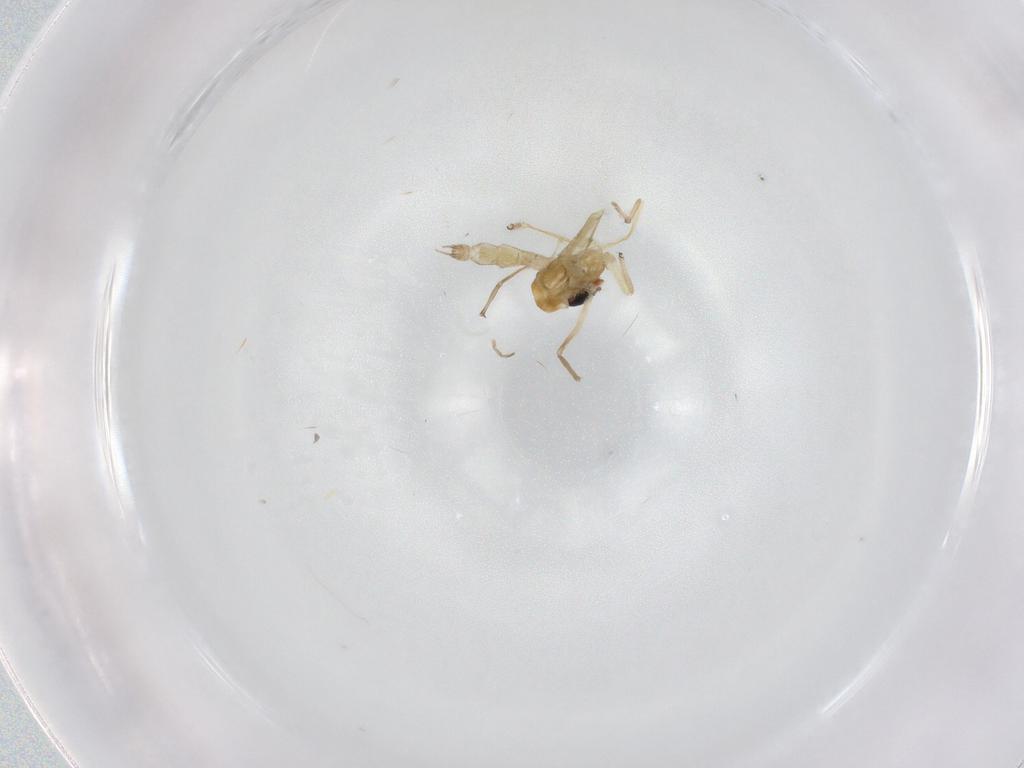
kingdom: Animalia
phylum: Arthropoda
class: Insecta
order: Diptera
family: Chironomidae
